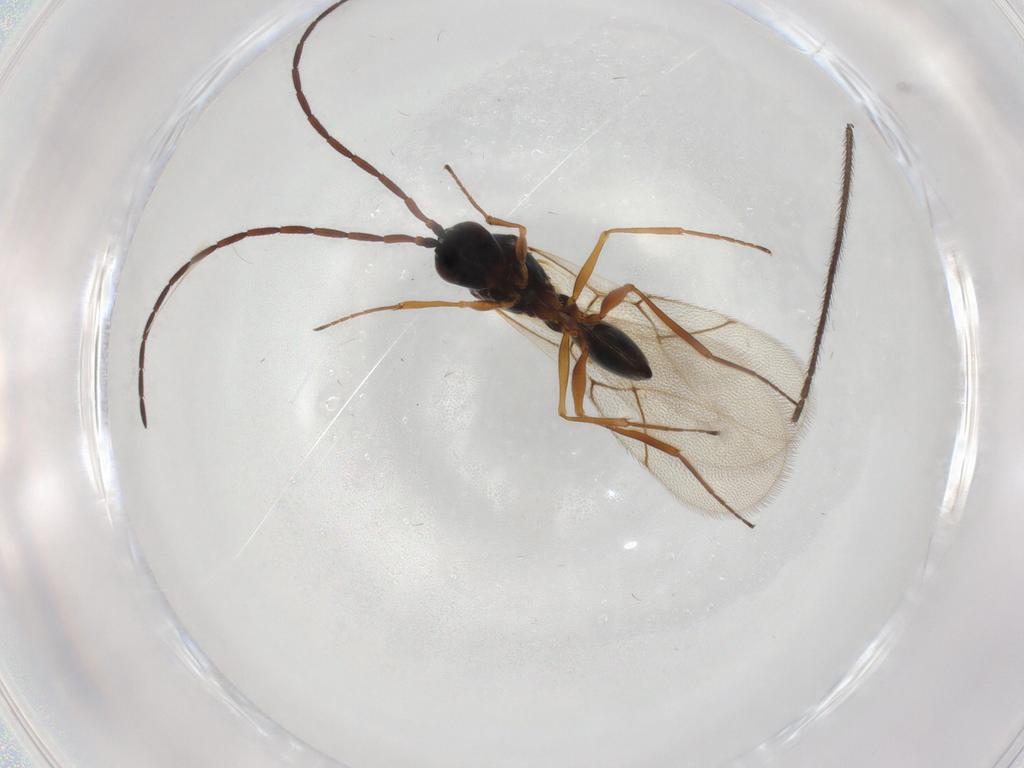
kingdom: Animalia
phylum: Arthropoda
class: Insecta
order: Hymenoptera
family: Figitidae
